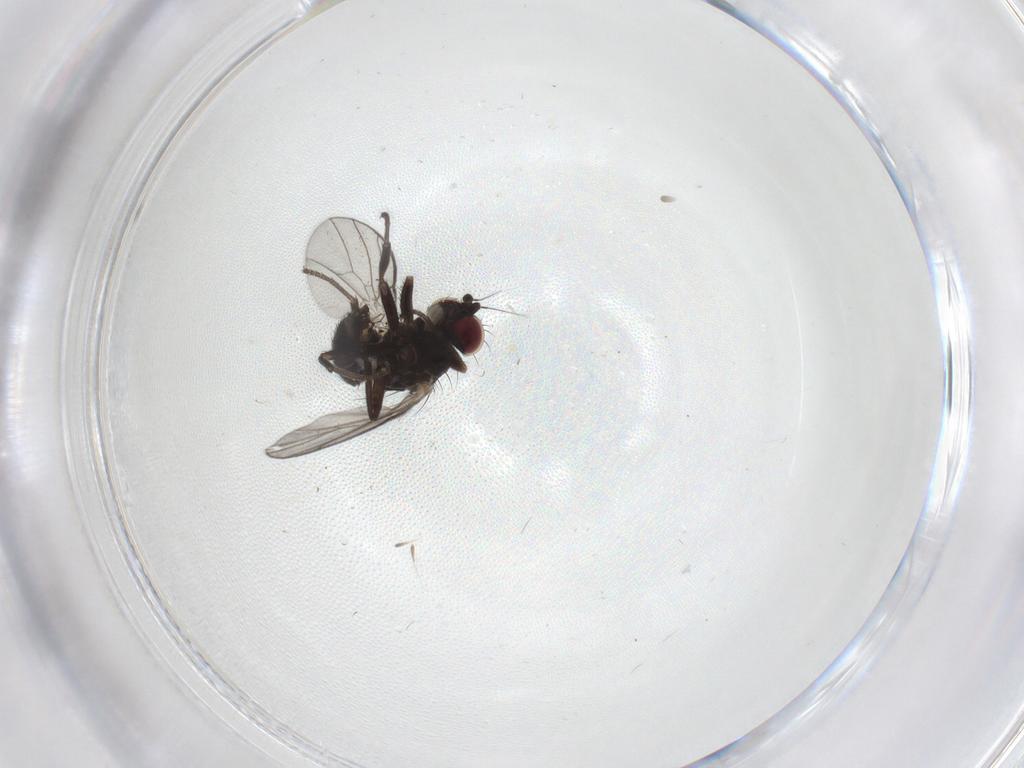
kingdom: Animalia
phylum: Arthropoda
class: Insecta
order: Diptera
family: Agromyzidae
